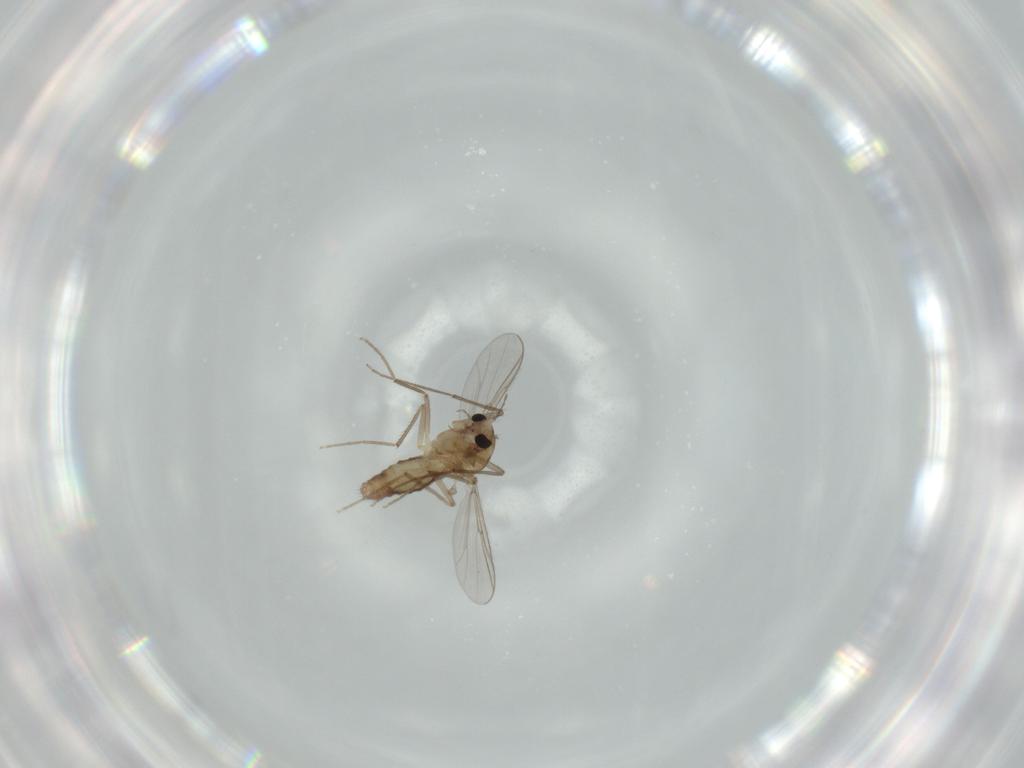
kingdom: Animalia
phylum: Arthropoda
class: Insecta
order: Diptera
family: Chironomidae
